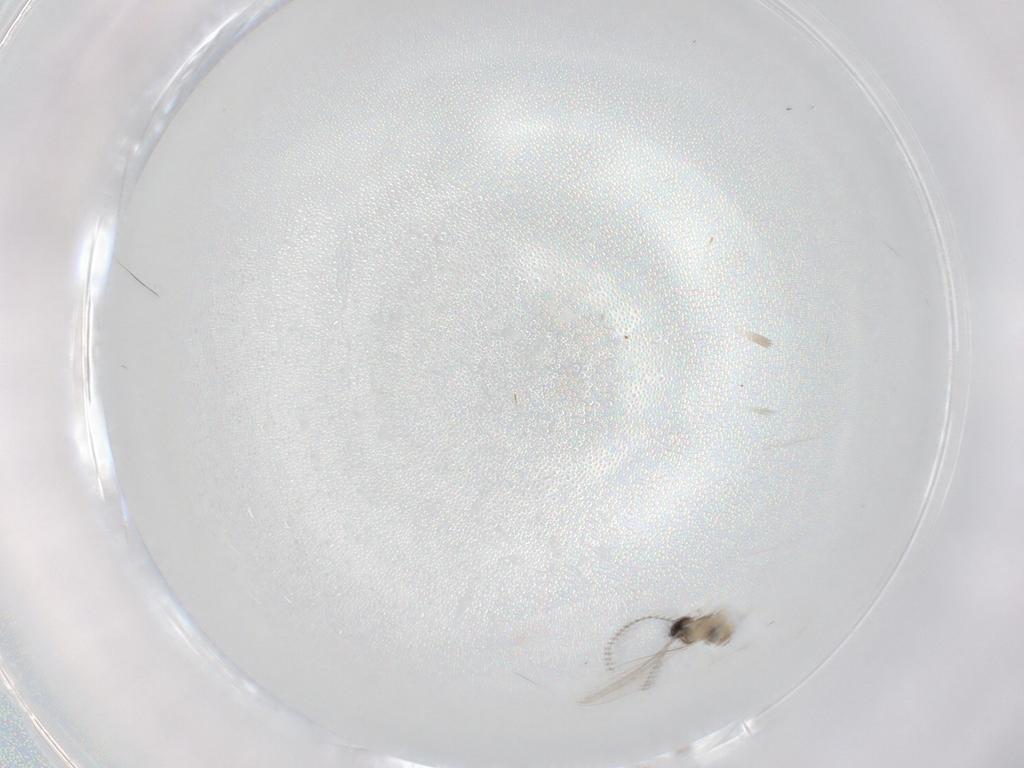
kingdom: Animalia
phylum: Arthropoda
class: Insecta
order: Diptera
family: Cecidomyiidae
